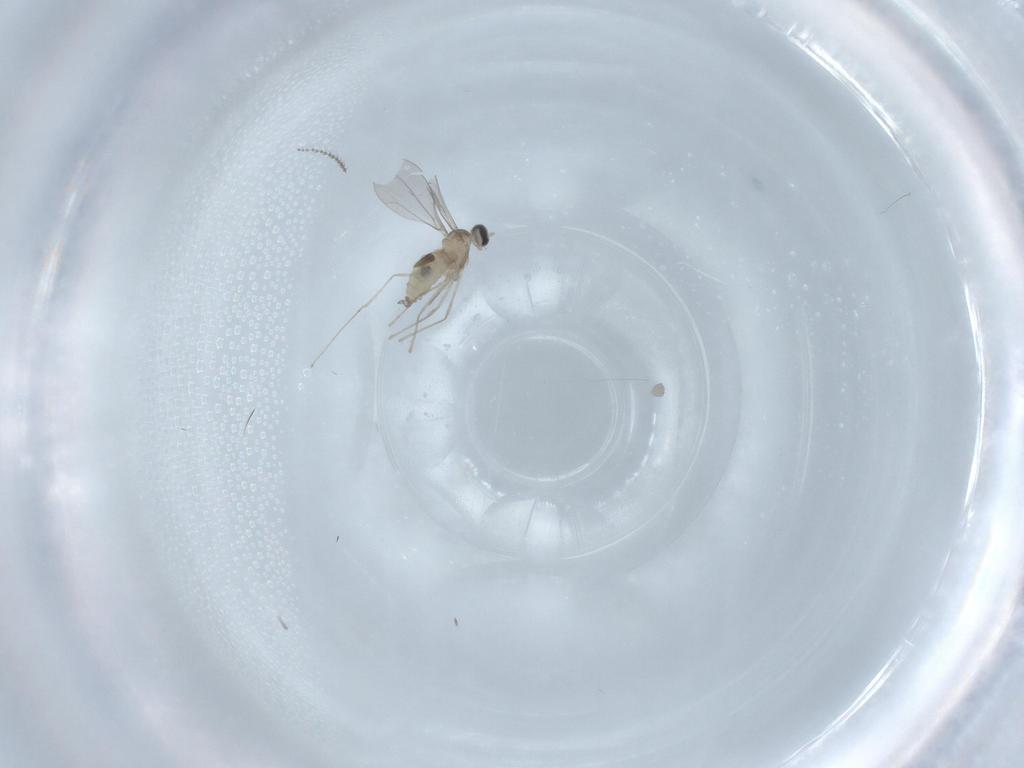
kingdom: Animalia
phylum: Arthropoda
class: Insecta
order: Diptera
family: Cecidomyiidae
